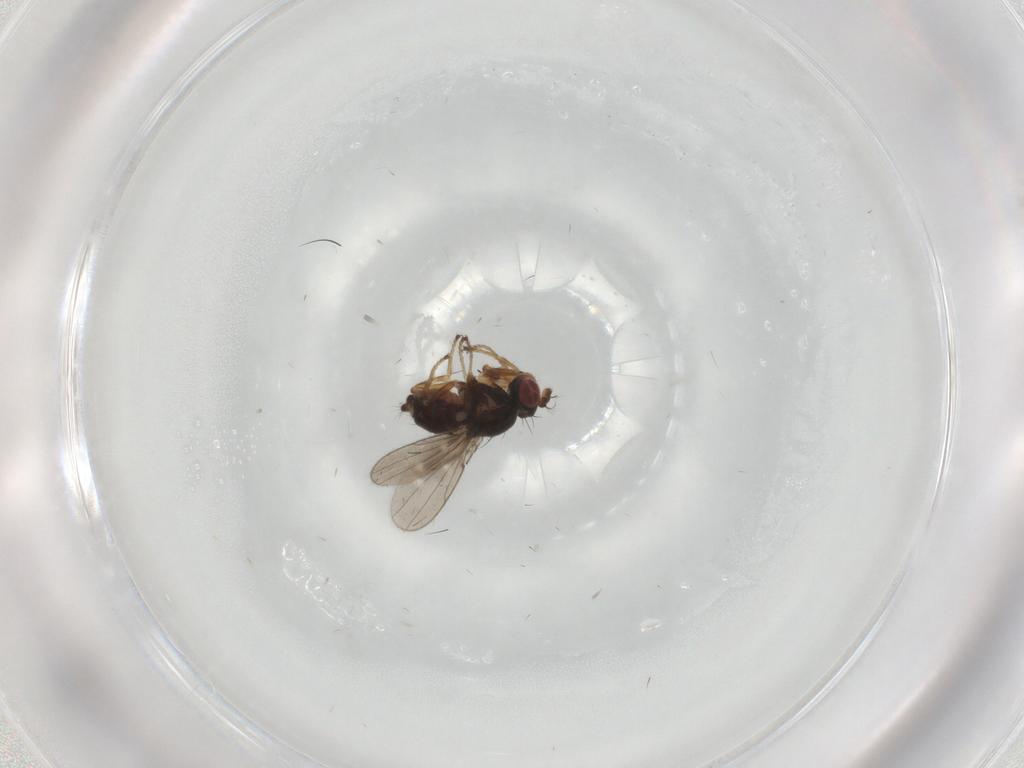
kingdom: Animalia
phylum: Arthropoda
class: Insecta
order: Diptera
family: Ephydridae
